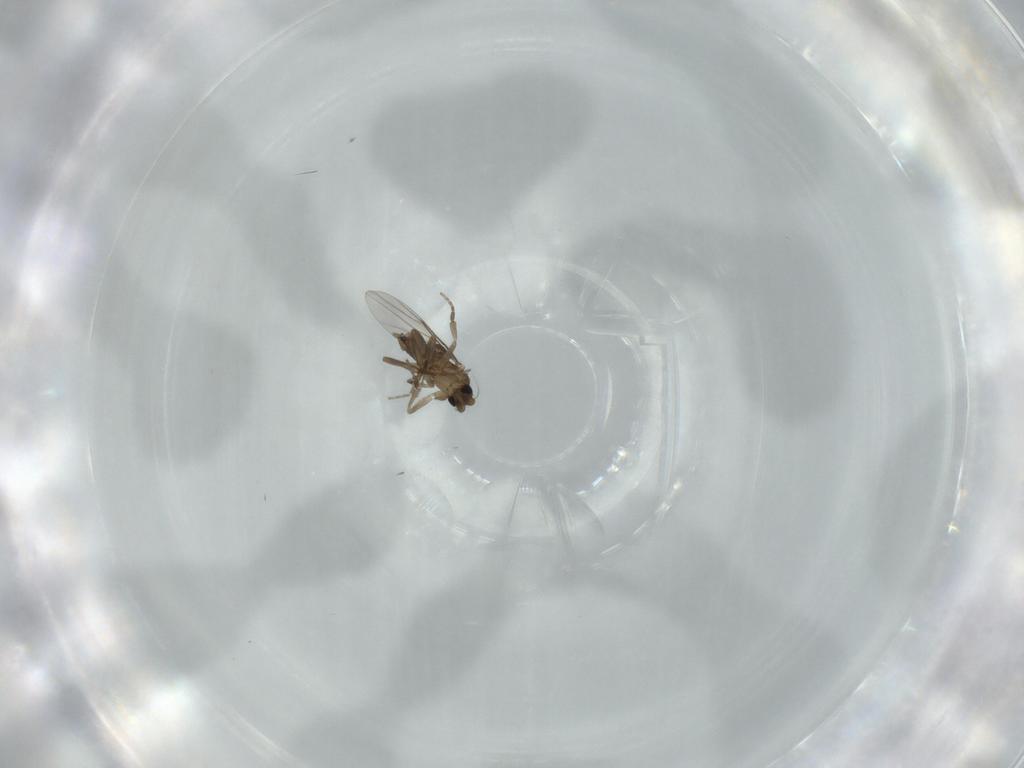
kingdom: Animalia
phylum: Arthropoda
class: Insecta
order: Diptera
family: Phoridae
